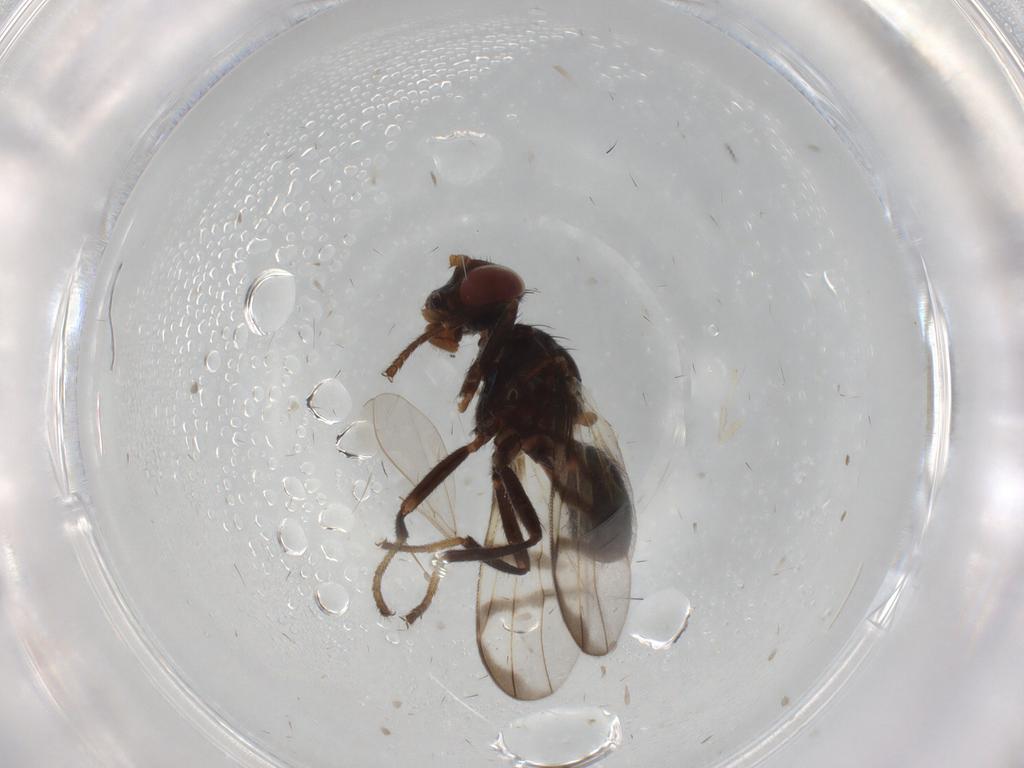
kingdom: Animalia
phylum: Arthropoda
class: Insecta
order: Diptera
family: Cecidomyiidae
